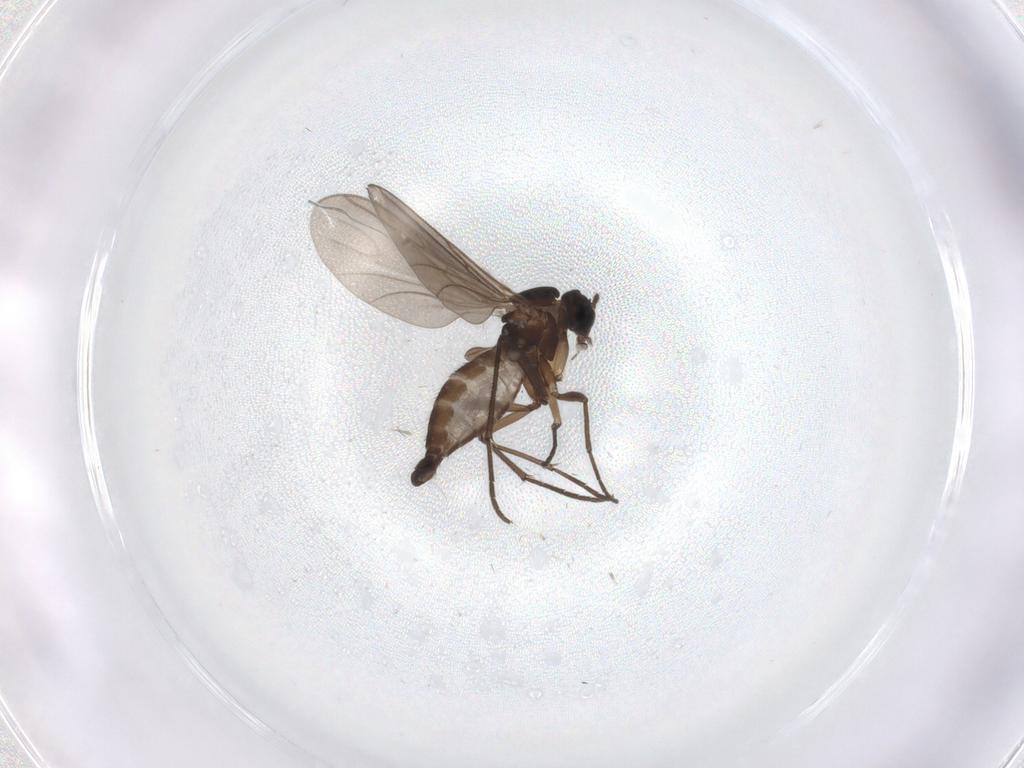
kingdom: Animalia
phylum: Arthropoda
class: Insecta
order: Diptera
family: Sciaridae
